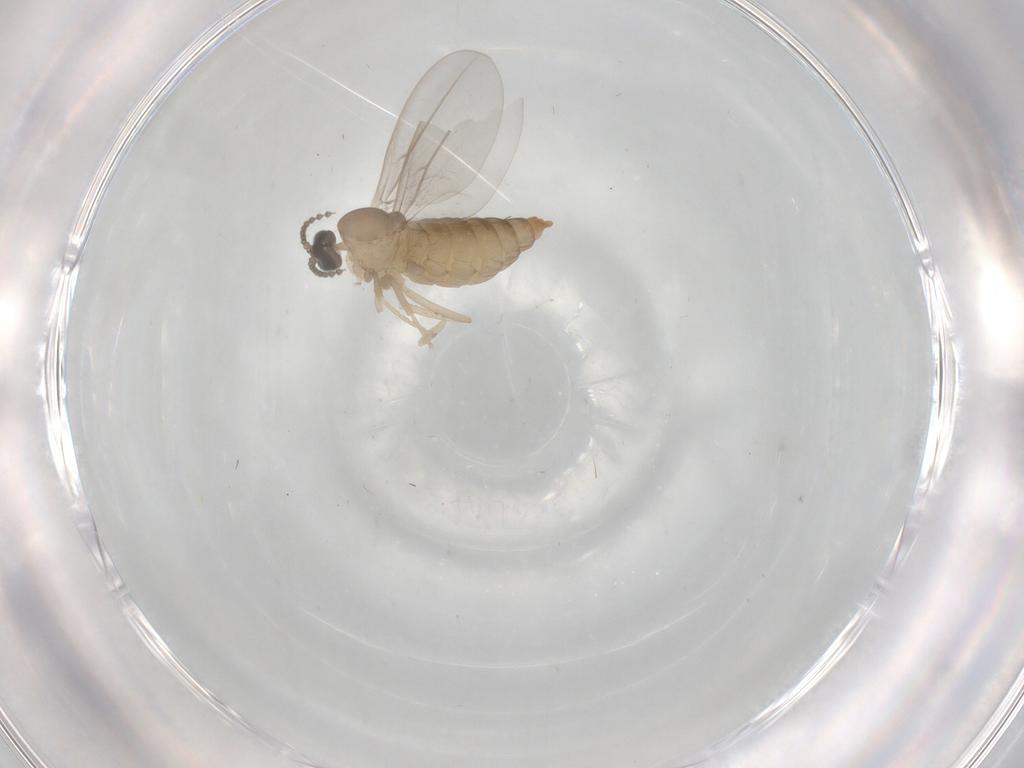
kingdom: Animalia
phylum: Arthropoda
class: Insecta
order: Diptera
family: Cecidomyiidae
